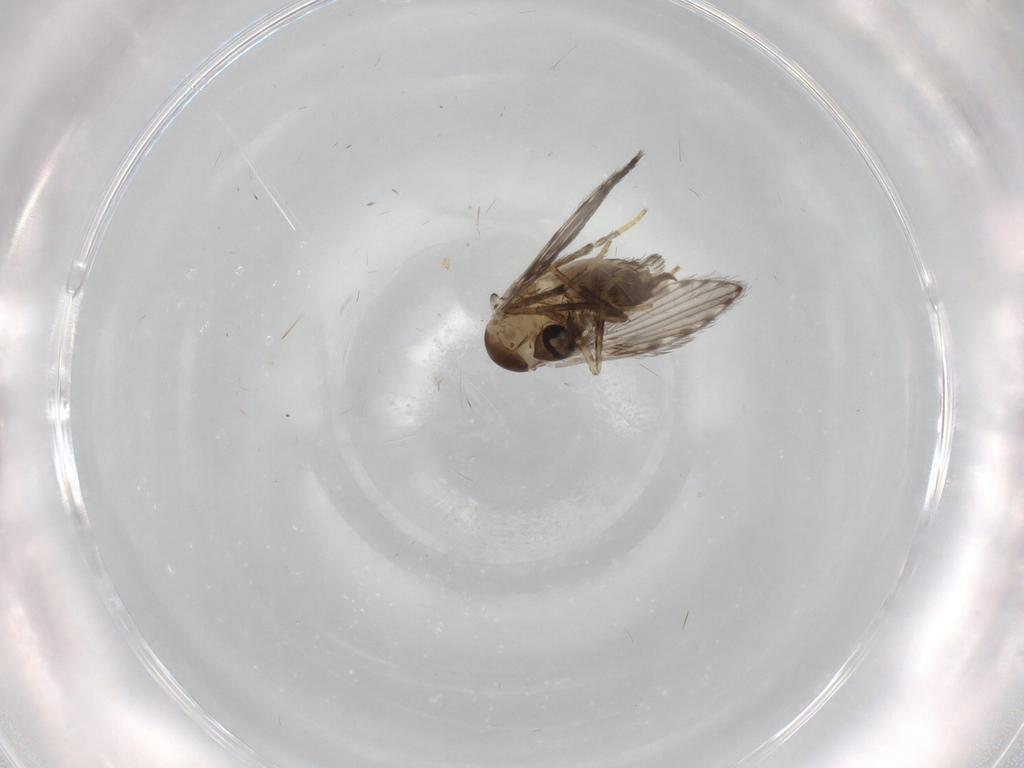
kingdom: Animalia
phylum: Arthropoda
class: Insecta
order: Diptera
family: Psychodidae
